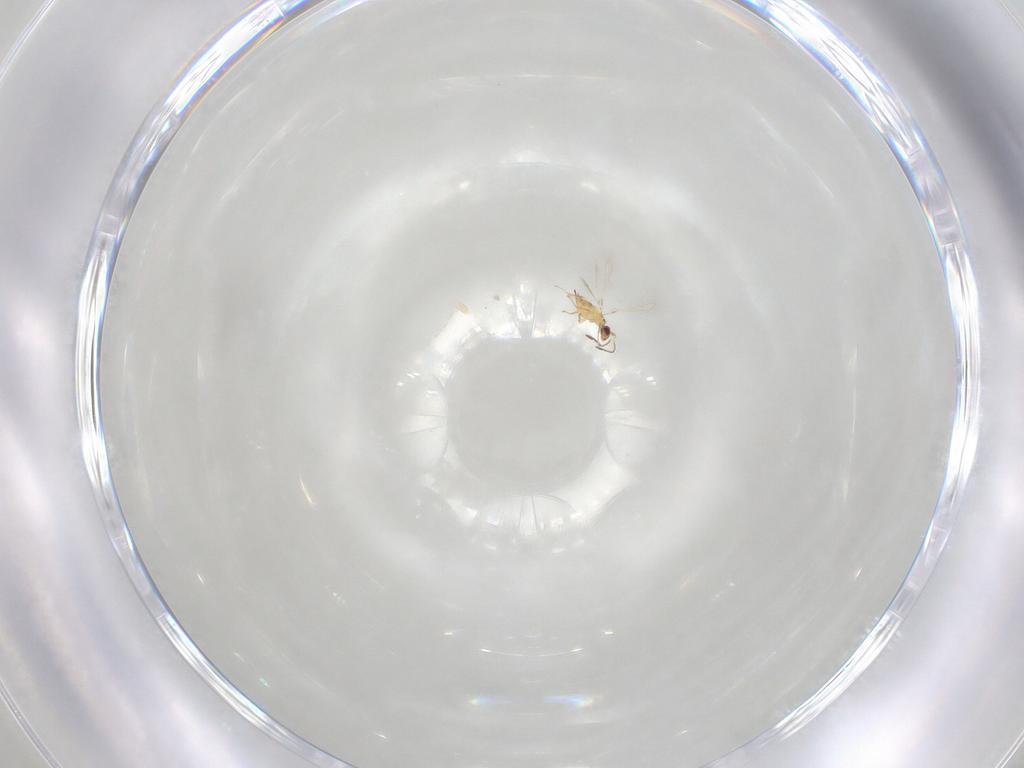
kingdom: Animalia
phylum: Arthropoda
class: Insecta
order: Hymenoptera
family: Mymaridae
